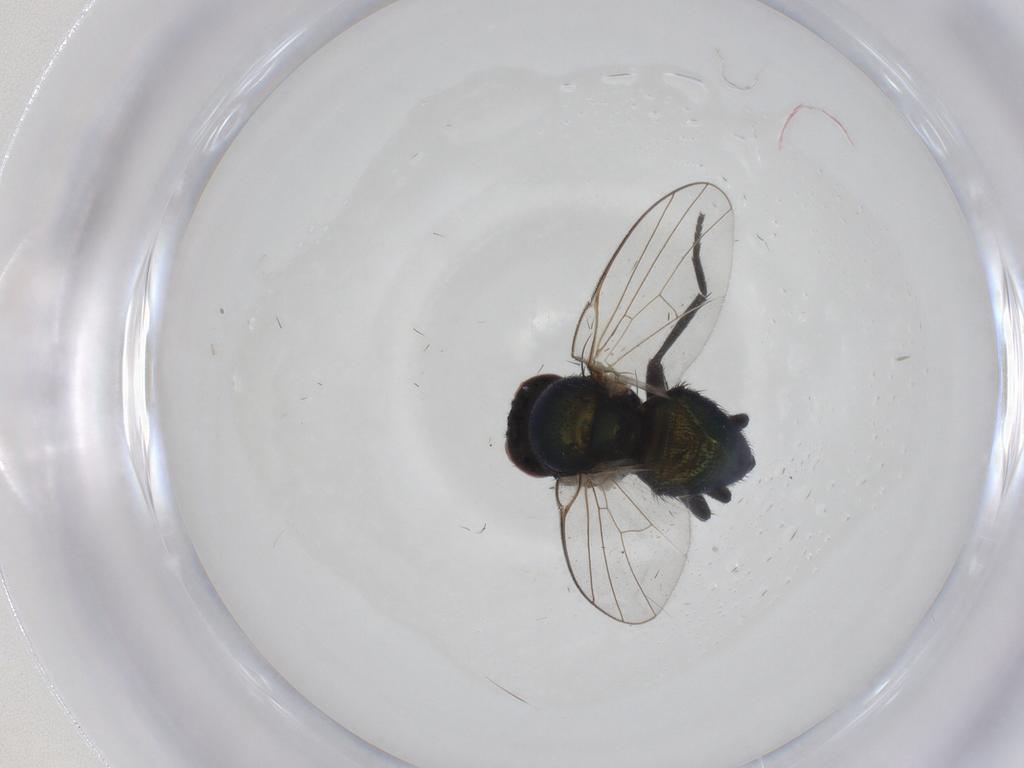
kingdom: Animalia
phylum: Arthropoda
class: Insecta
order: Diptera
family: Agromyzidae
